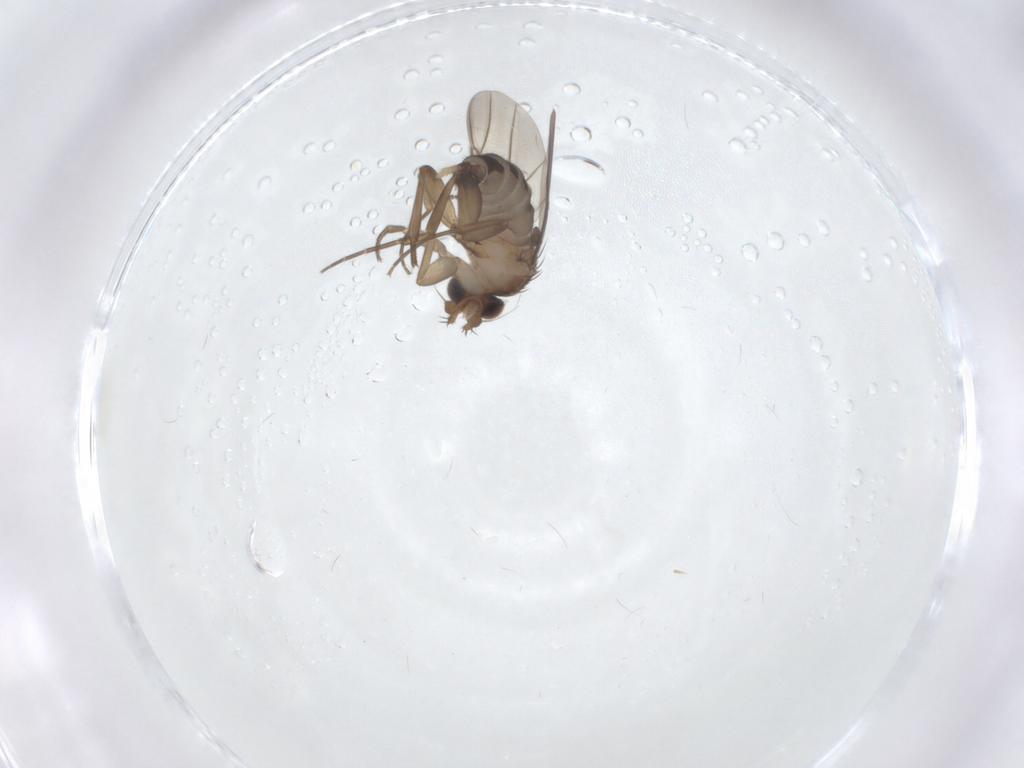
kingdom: Animalia
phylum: Arthropoda
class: Insecta
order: Diptera
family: Phoridae
